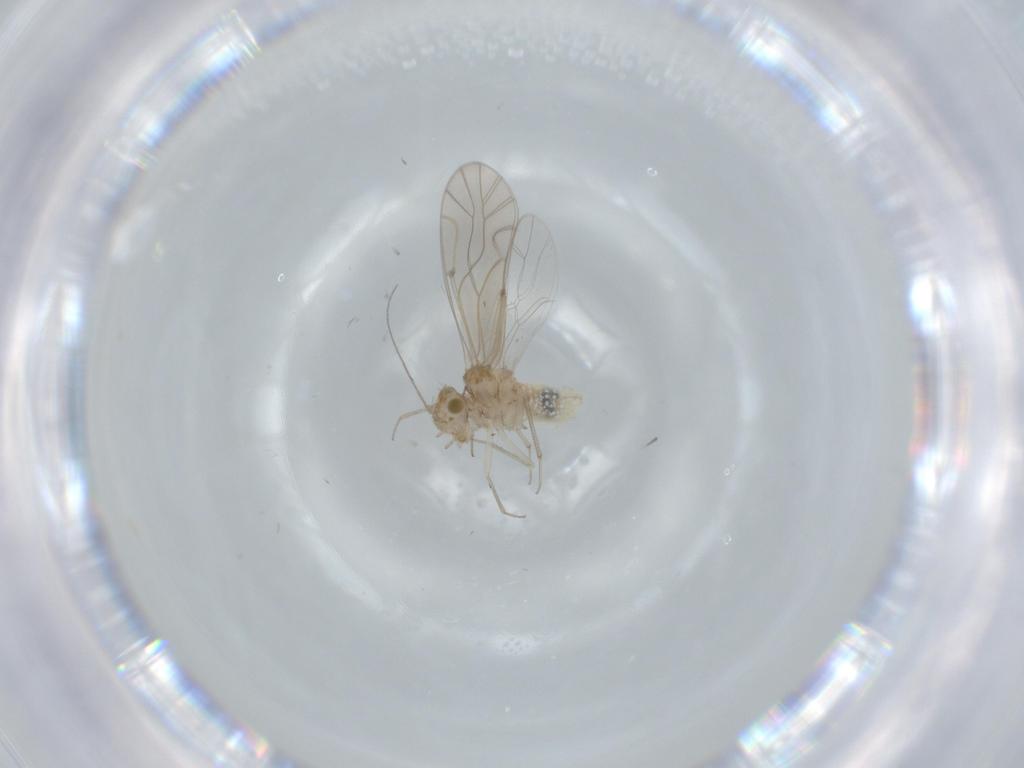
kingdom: Animalia
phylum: Arthropoda
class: Insecta
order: Psocodea
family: Lachesillidae
